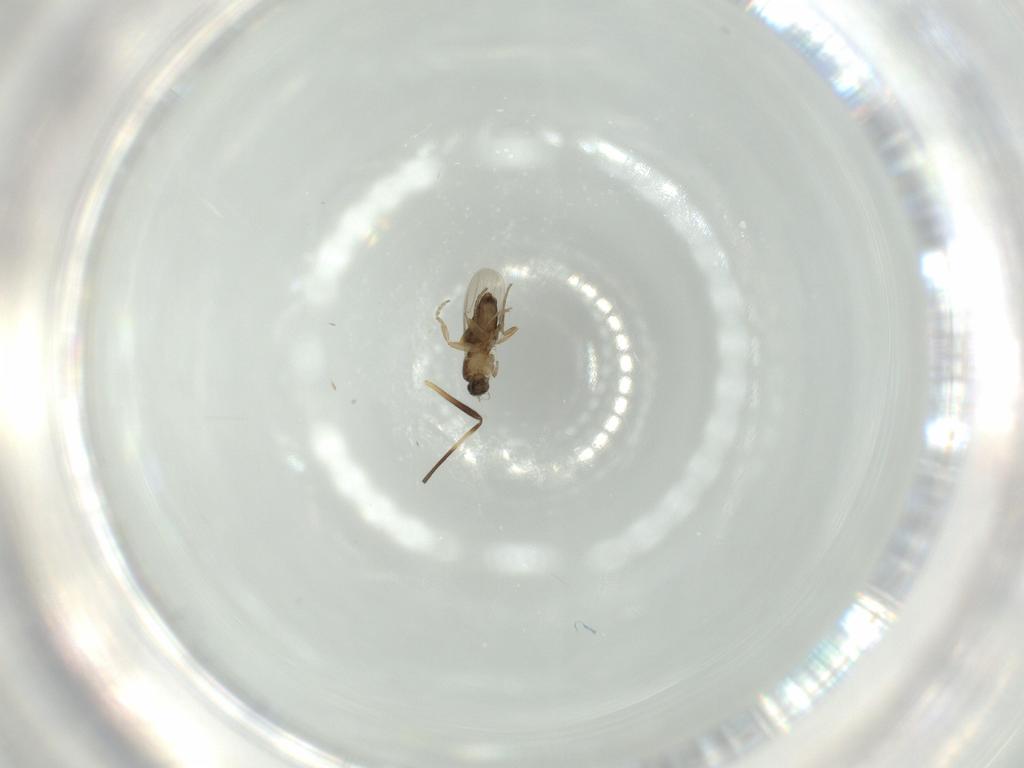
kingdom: Animalia
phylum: Arthropoda
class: Insecta
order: Diptera
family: Phoridae
